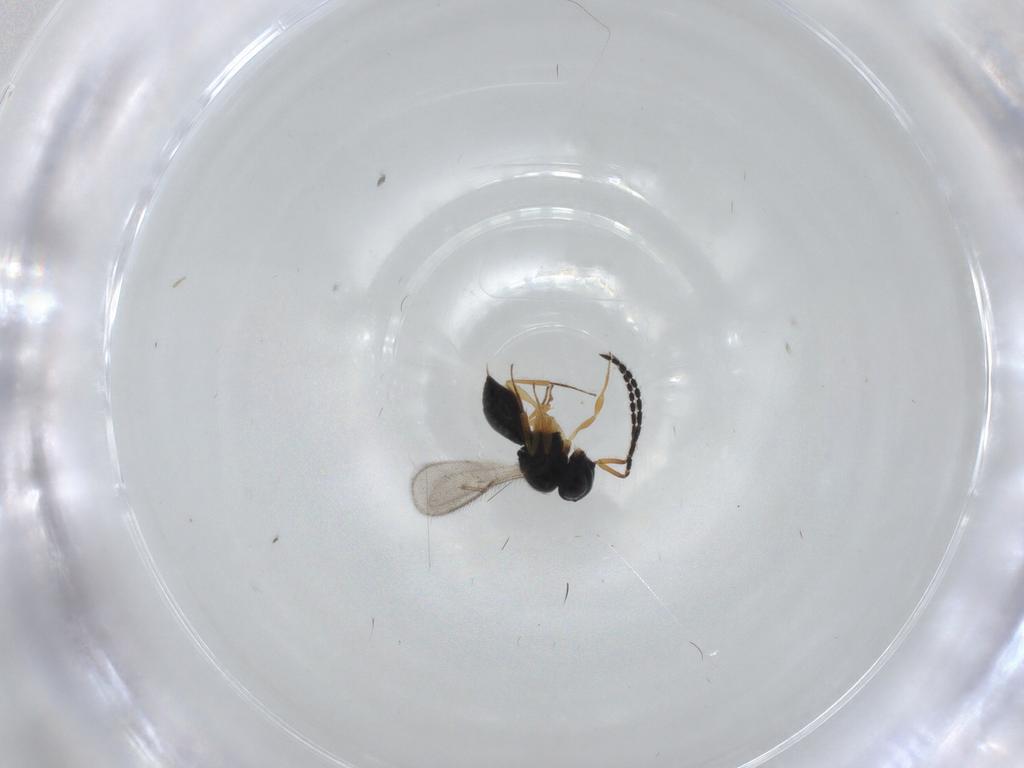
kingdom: Animalia
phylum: Arthropoda
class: Insecta
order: Hymenoptera
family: Scelionidae
